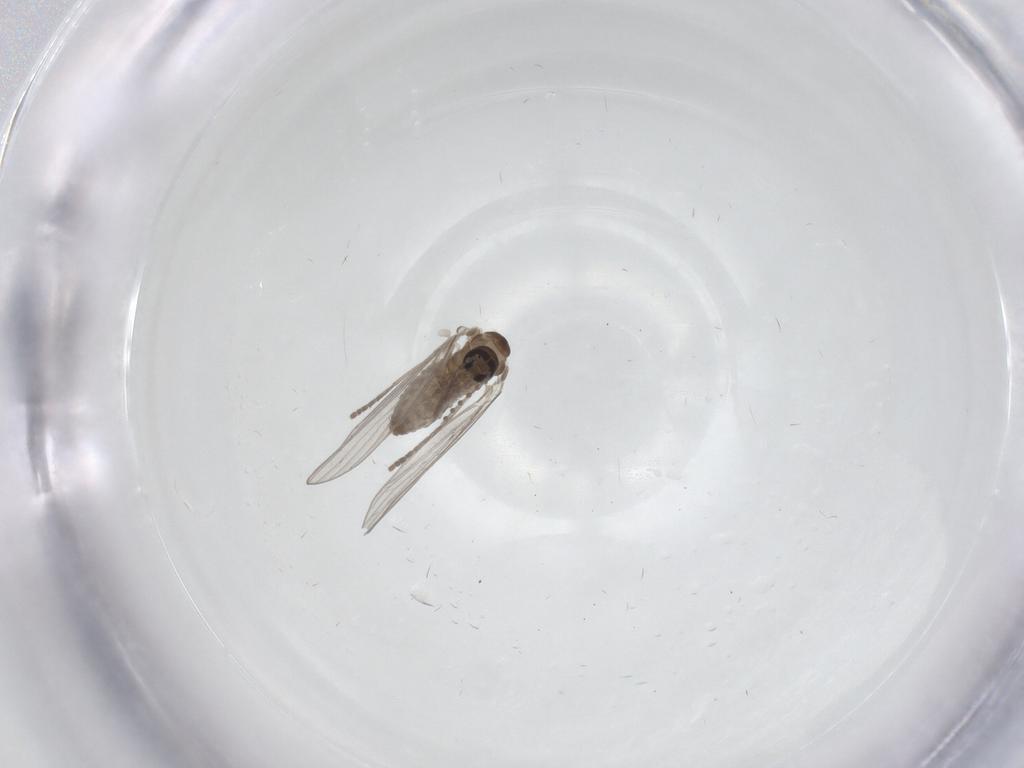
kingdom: Animalia
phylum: Arthropoda
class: Insecta
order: Diptera
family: Psychodidae
